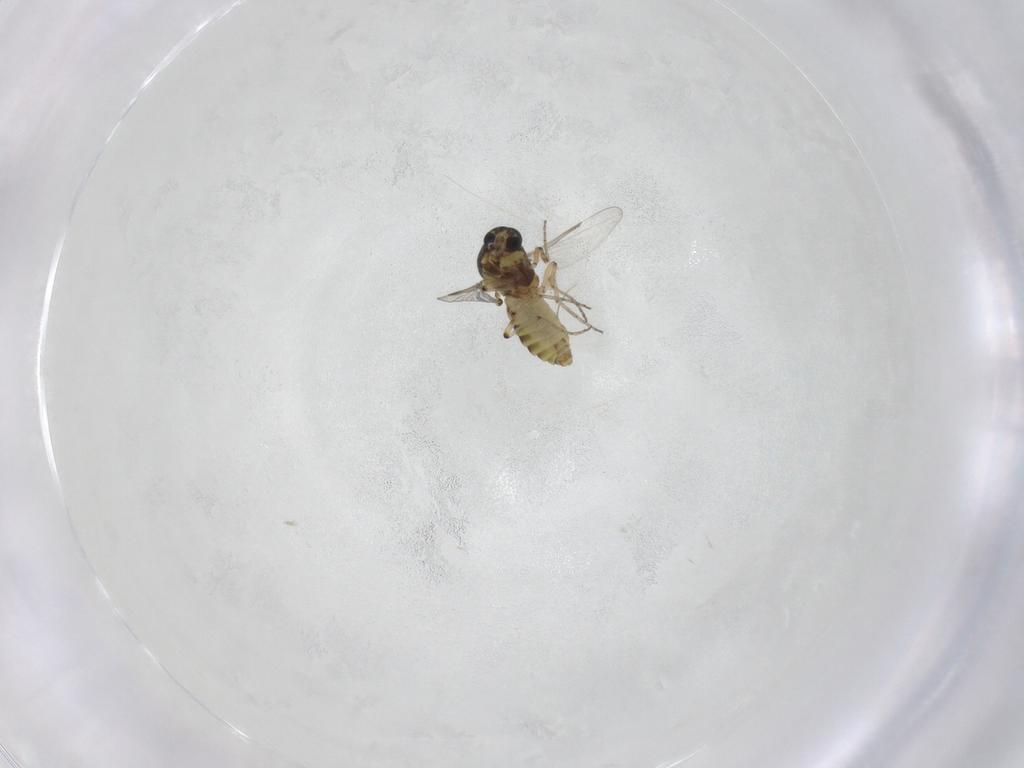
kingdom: Animalia
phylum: Arthropoda
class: Insecta
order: Diptera
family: Ceratopogonidae
